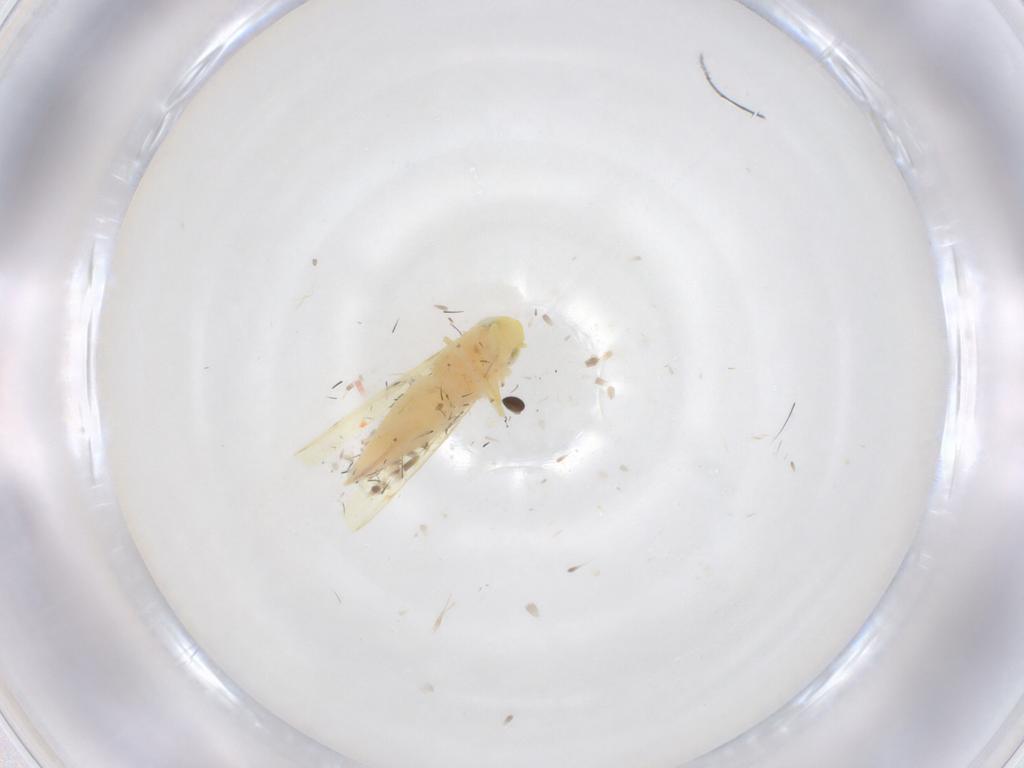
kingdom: Animalia
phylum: Arthropoda
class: Insecta
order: Diptera
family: Cecidomyiidae
